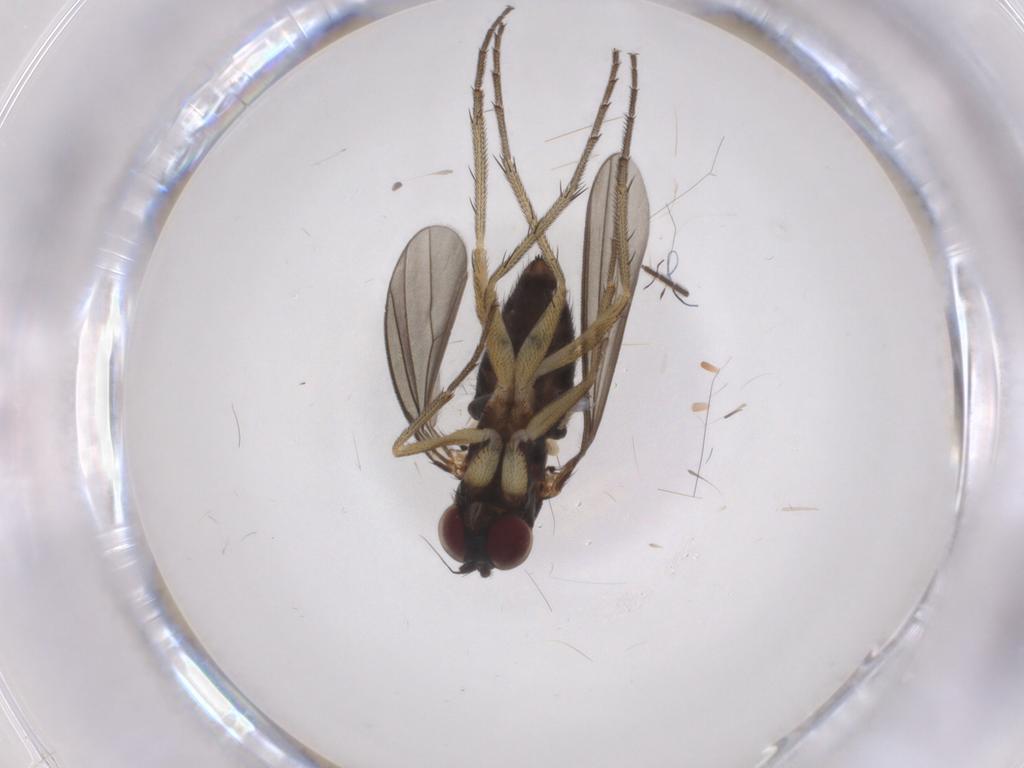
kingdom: Animalia
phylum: Arthropoda
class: Insecta
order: Diptera
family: Dolichopodidae
